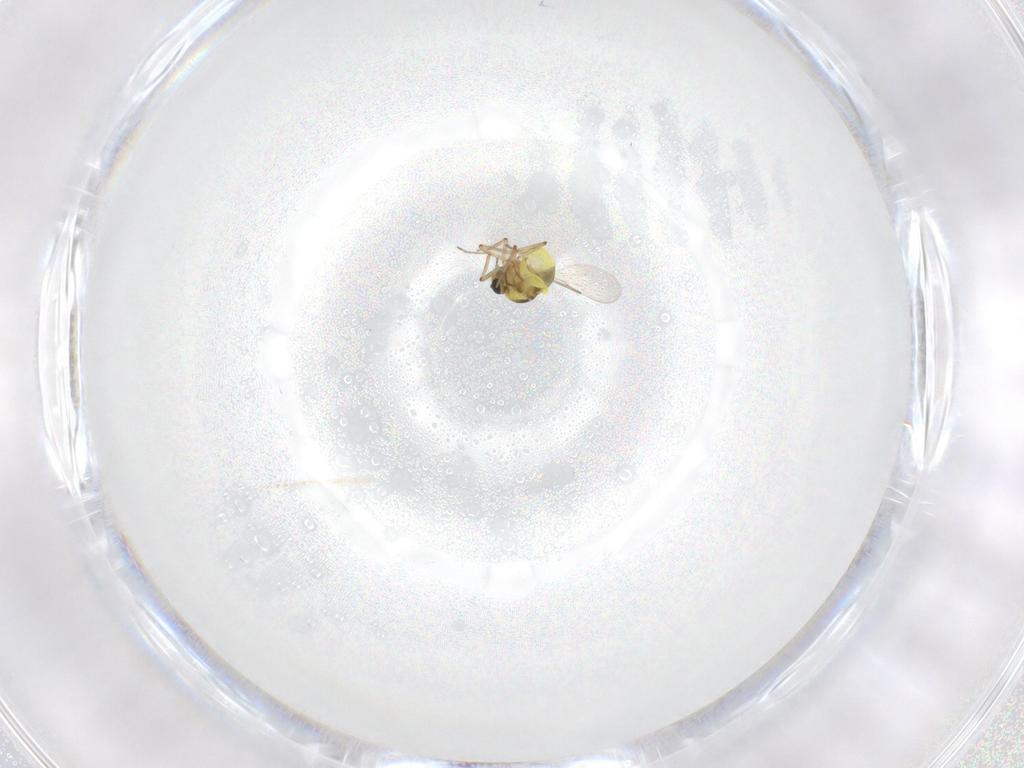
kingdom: Animalia
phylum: Arthropoda
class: Insecta
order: Diptera
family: Ceratopogonidae
